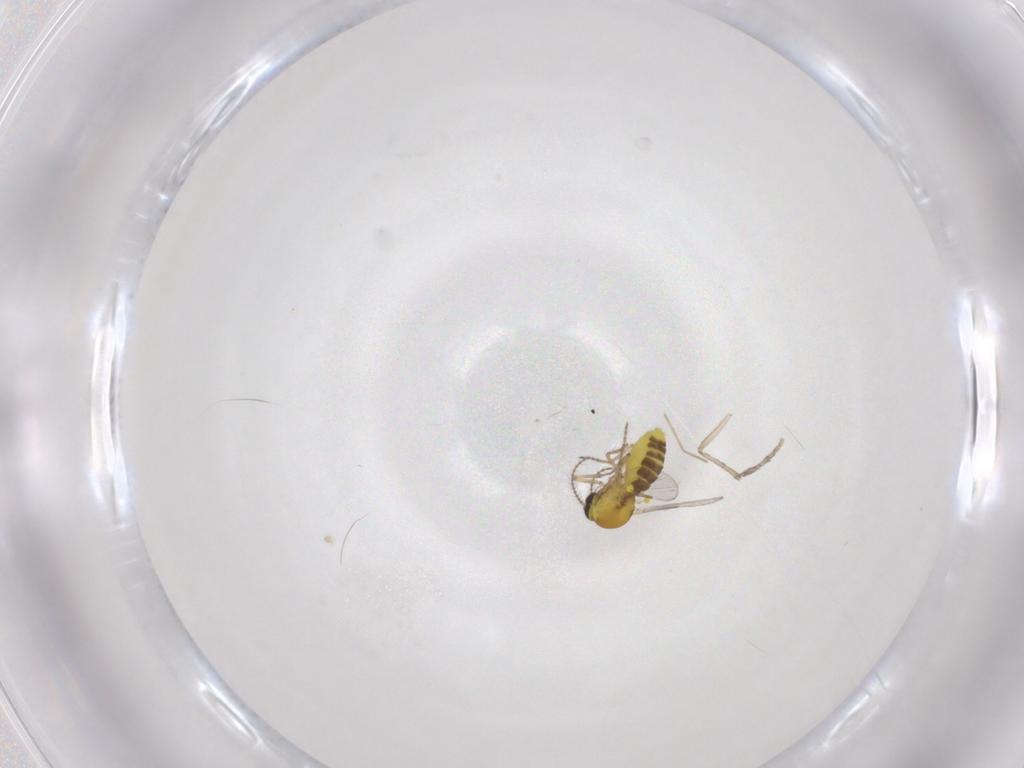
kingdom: Animalia
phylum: Arthropoda
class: Insecta
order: Diptera
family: Psychodidae
